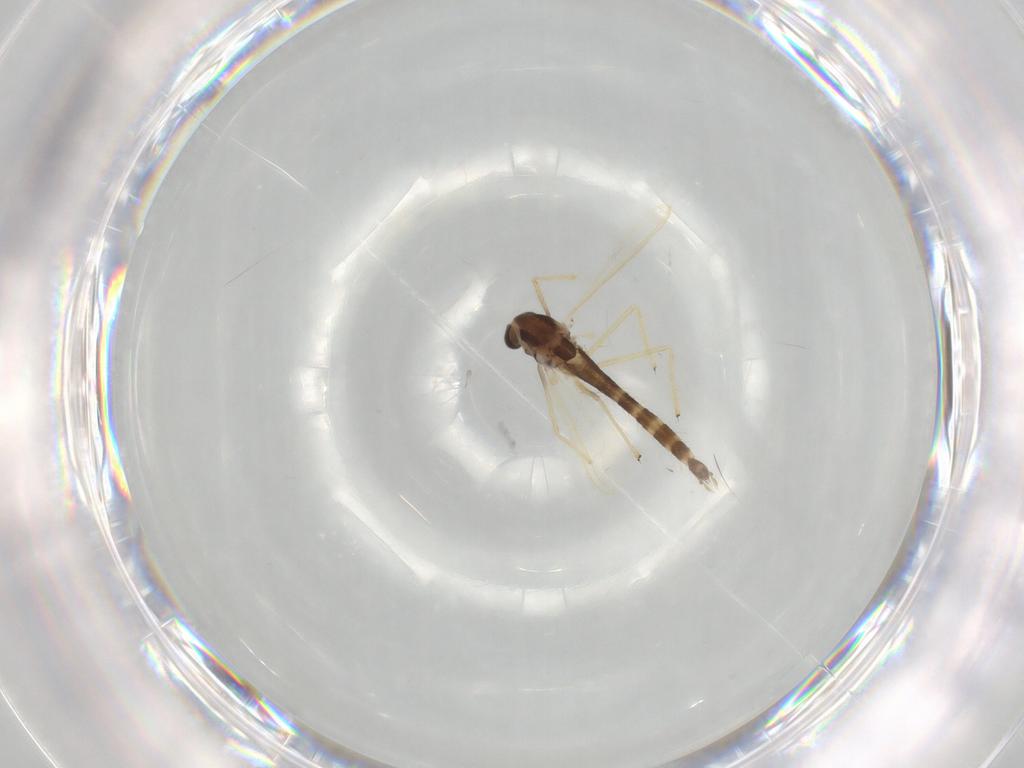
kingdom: Animalia
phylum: Arthropoda
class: Insecta
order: Diptera
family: Chironomidae
